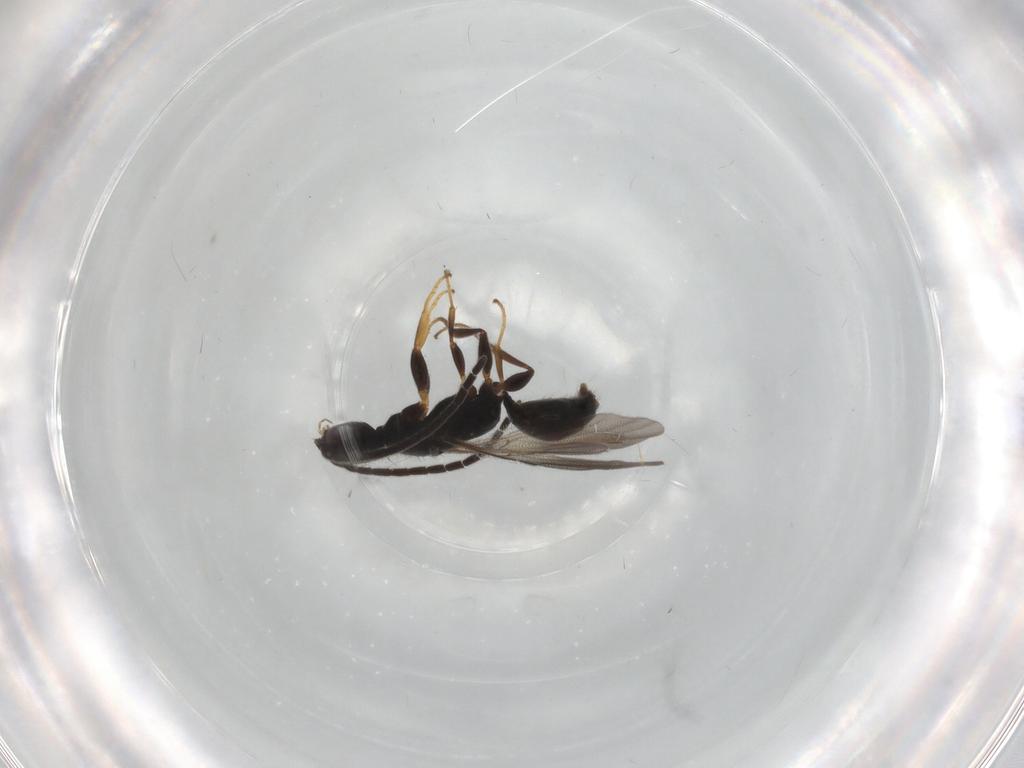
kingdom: Animalia
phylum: Arthropoda
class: Insecta
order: Hymenoptera
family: Bethylidae
